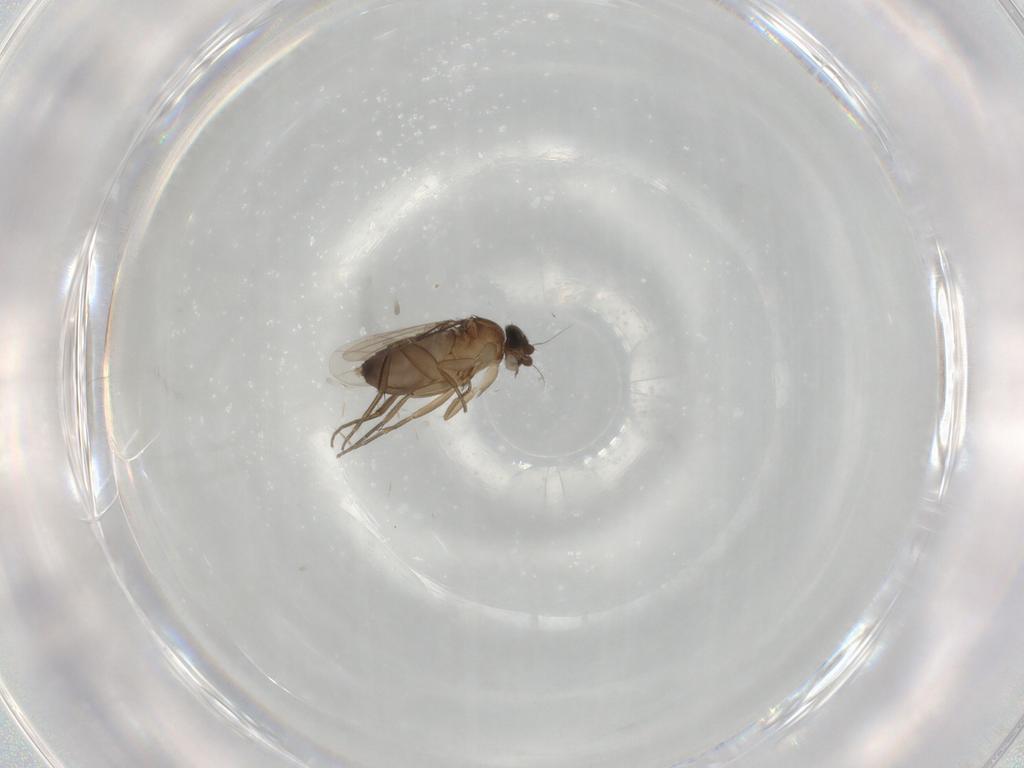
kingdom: Animalia
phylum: Arthropoda
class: Insecta
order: Diptera
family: Phoridae
